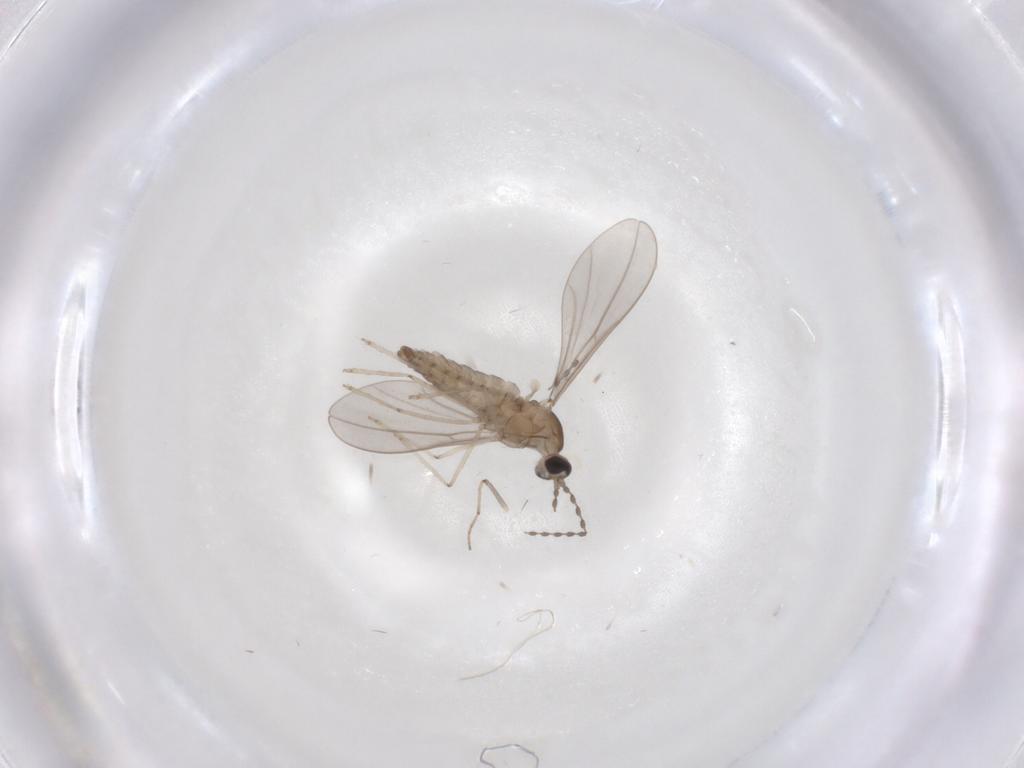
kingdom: Animalia
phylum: Arthropoda
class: Insecta
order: Diptera
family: Chironomidae
